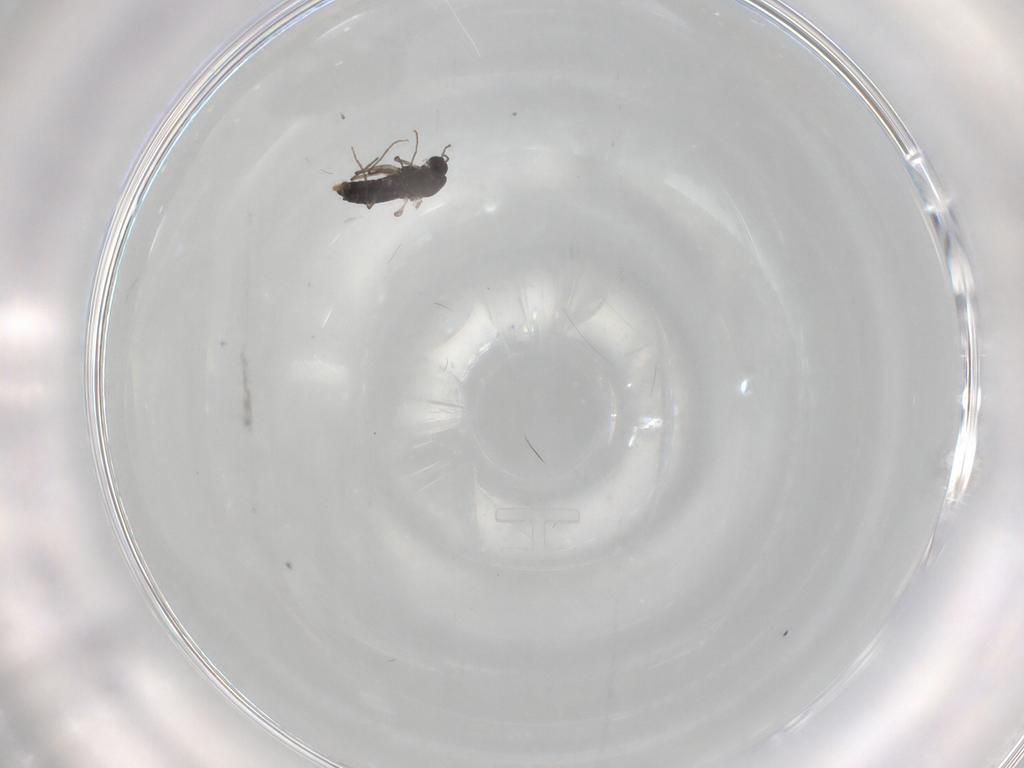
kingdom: Animalia
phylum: Arthropoda
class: Insecta
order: Diptera
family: Chironomidae
